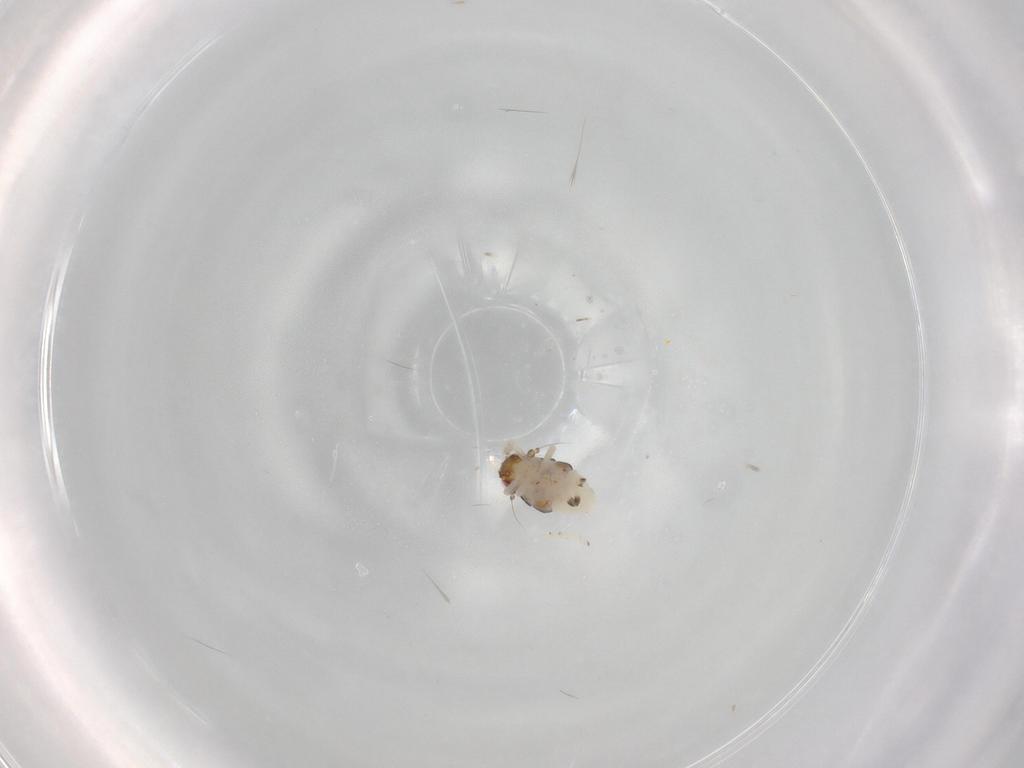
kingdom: Animalia
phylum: Arthropoda
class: Insecta
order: Hemiptera
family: Nogodinidae
